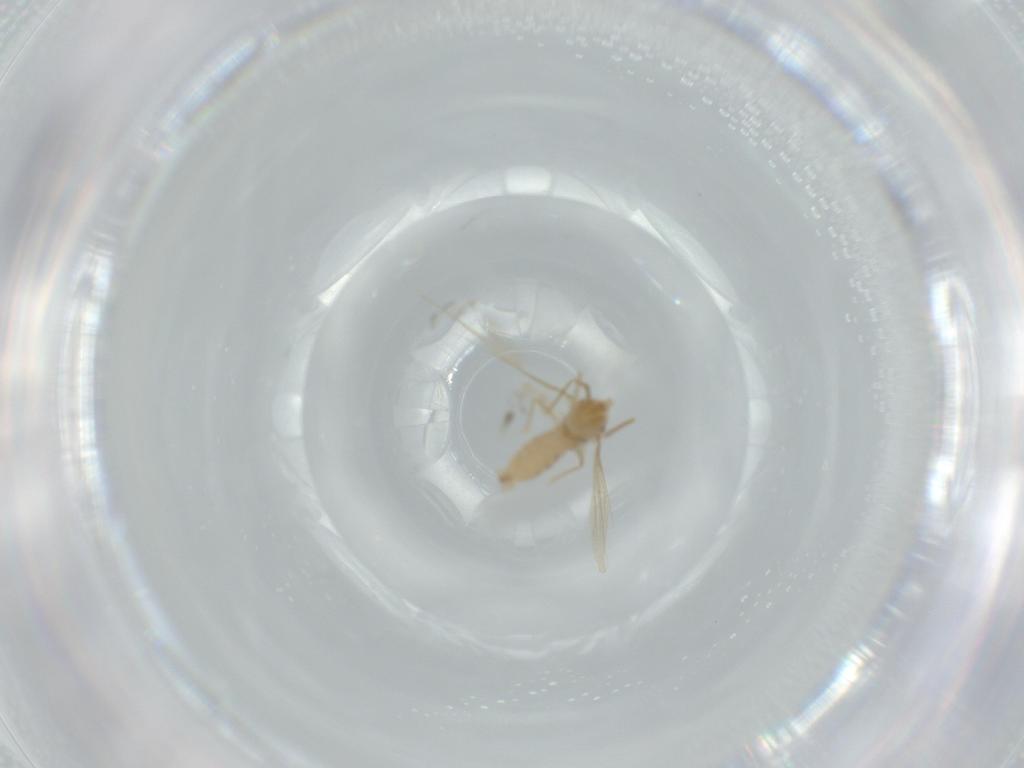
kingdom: Animalia
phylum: Arthropoda
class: Insecta
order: Diptera
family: Cecidomyiidae
